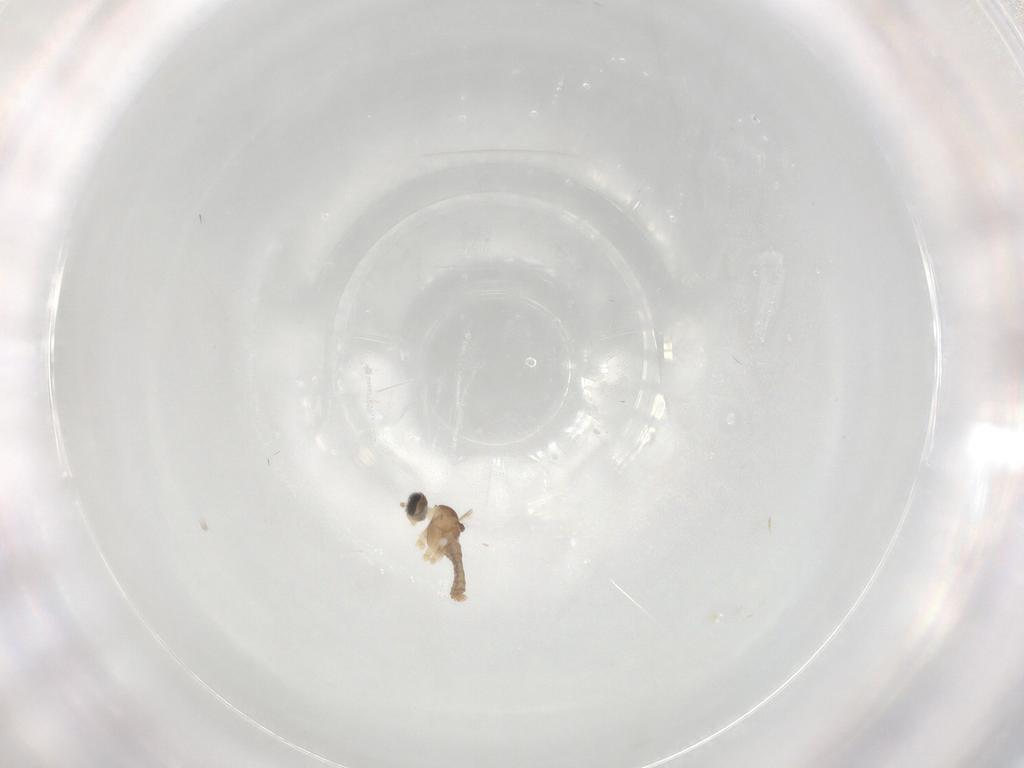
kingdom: Animalia
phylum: Arthropoda
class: Insecta
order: Diptera
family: Cecidomyiidae
